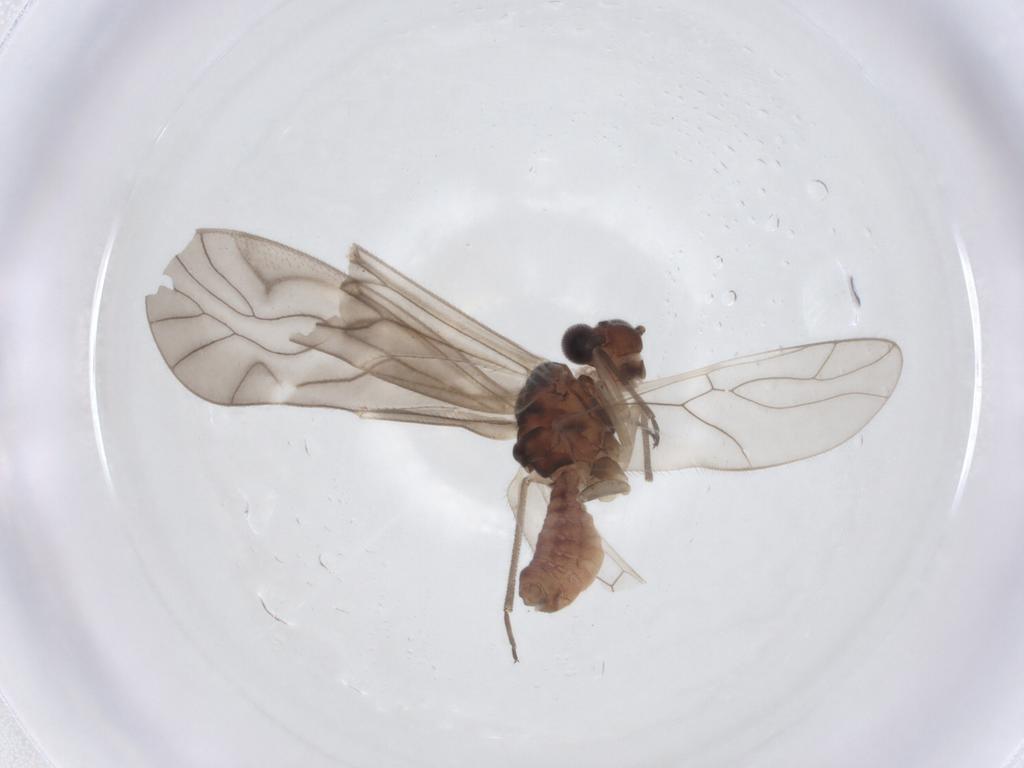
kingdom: Animalia
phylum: Arthropoda
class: Insecta
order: Psocodea
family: Caeciliusidae
